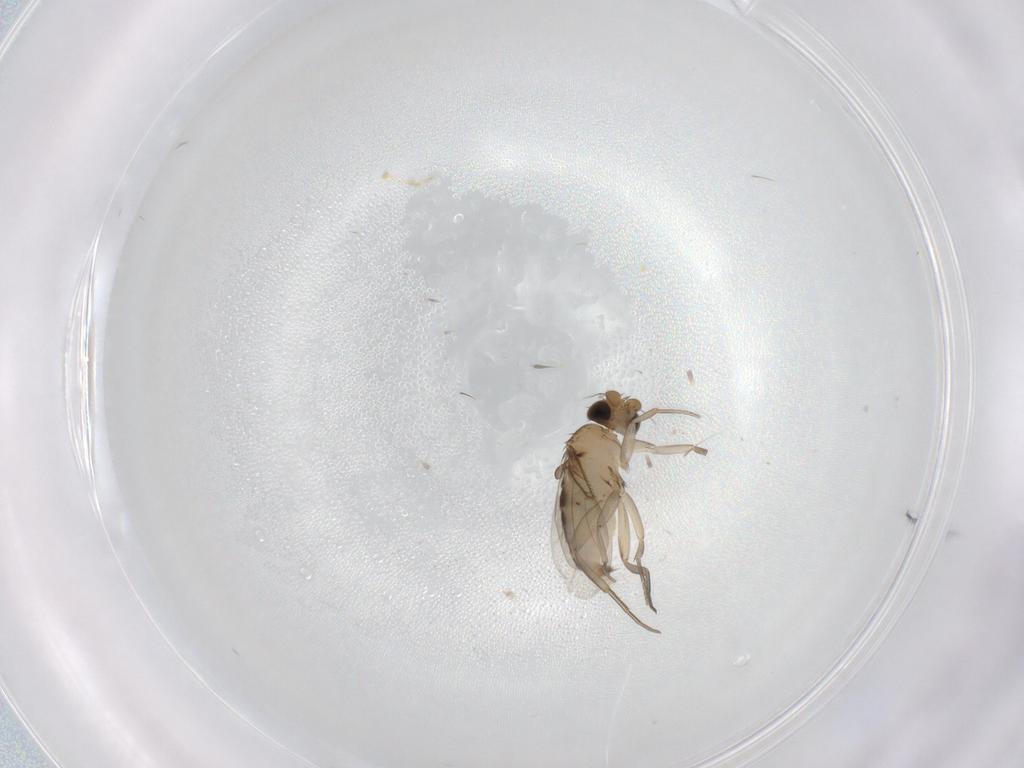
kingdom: Animalia
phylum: Arthropoda
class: Insecta
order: Diptera
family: Phoridae
